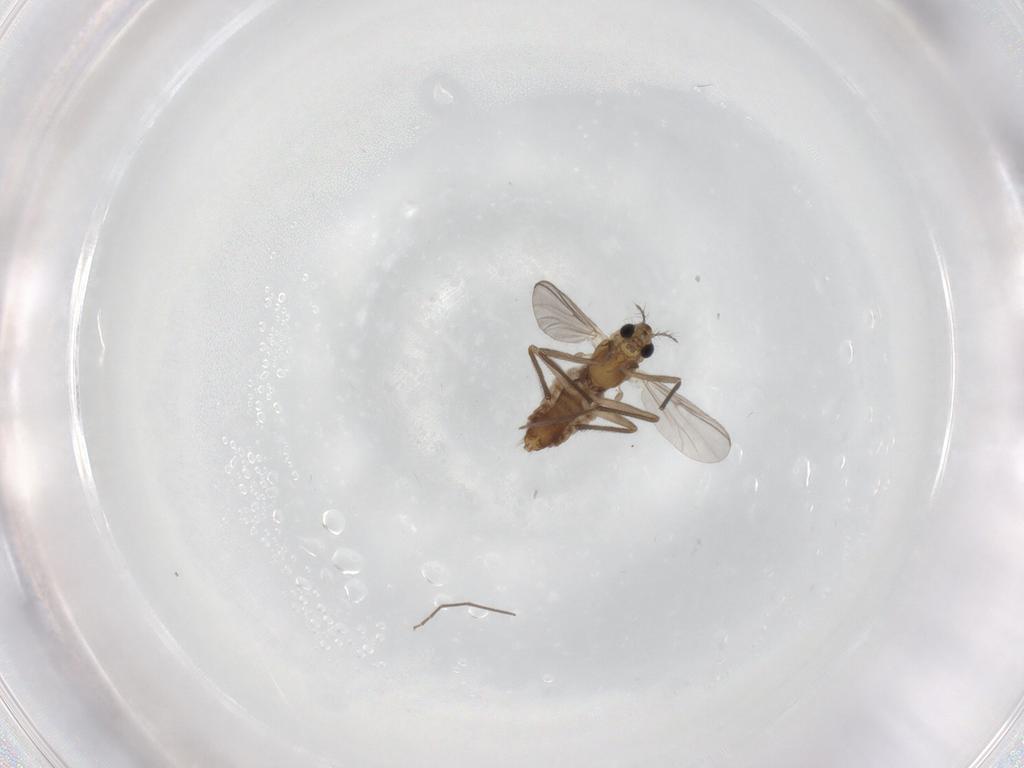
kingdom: Animalia
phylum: Arthropoda
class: Insecta
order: Diptera
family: Chironomidae
